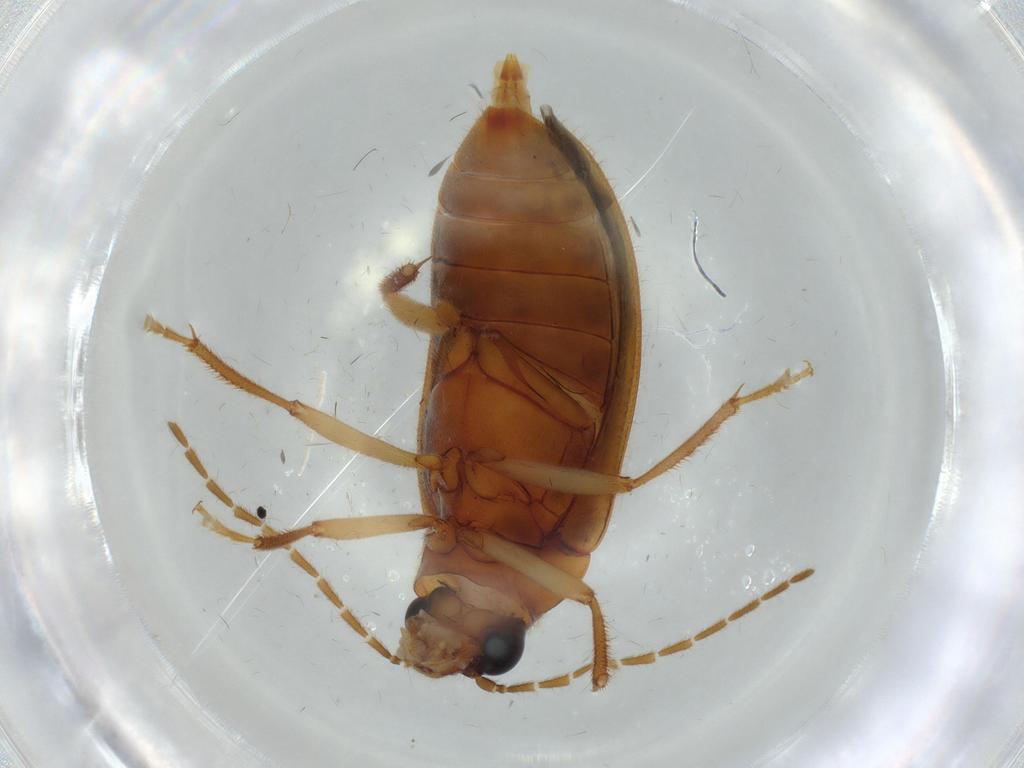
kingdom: Animalia
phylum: Arthropoda
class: Insecta
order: Coleoptera
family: Ptilodactylidae
